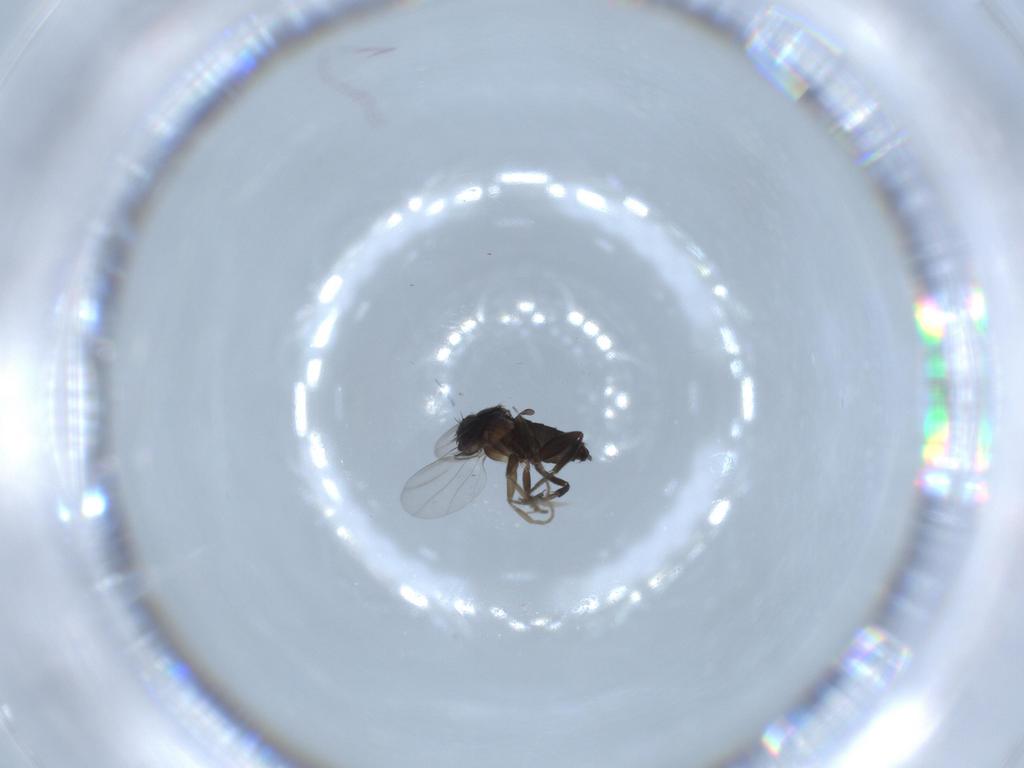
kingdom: Animalia
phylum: Arthropoda
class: Insecta
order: Diptera
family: Phoridae
